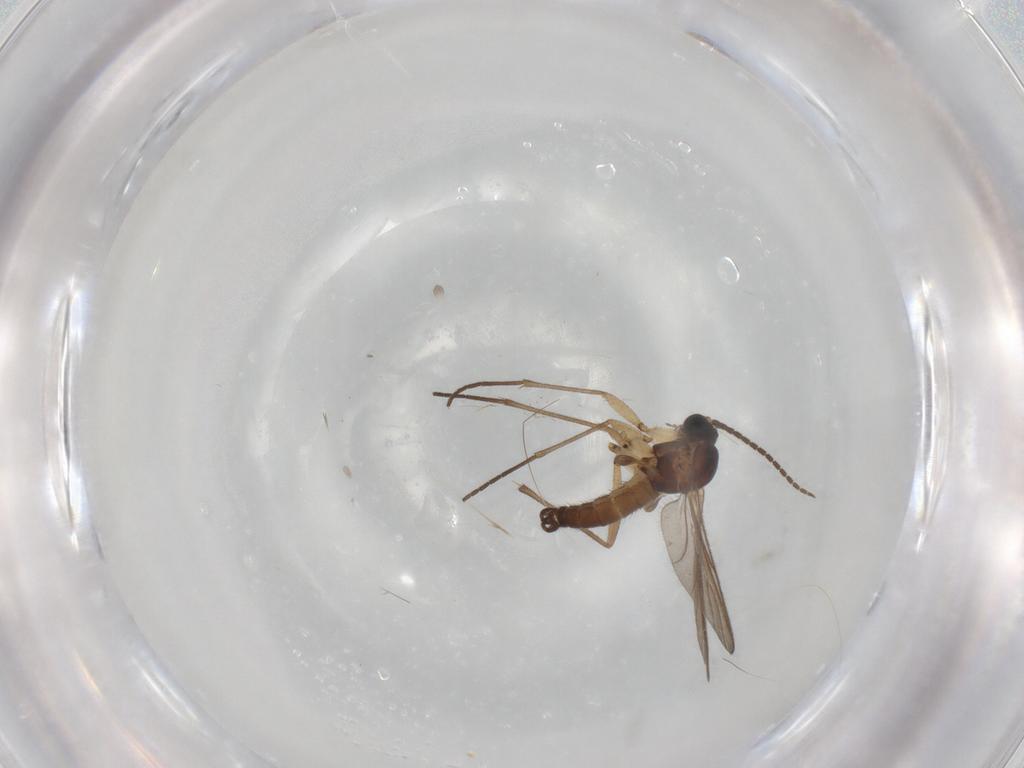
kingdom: Animalia
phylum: Arthropoda
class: Insecta
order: Diptera
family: Sciaridae
